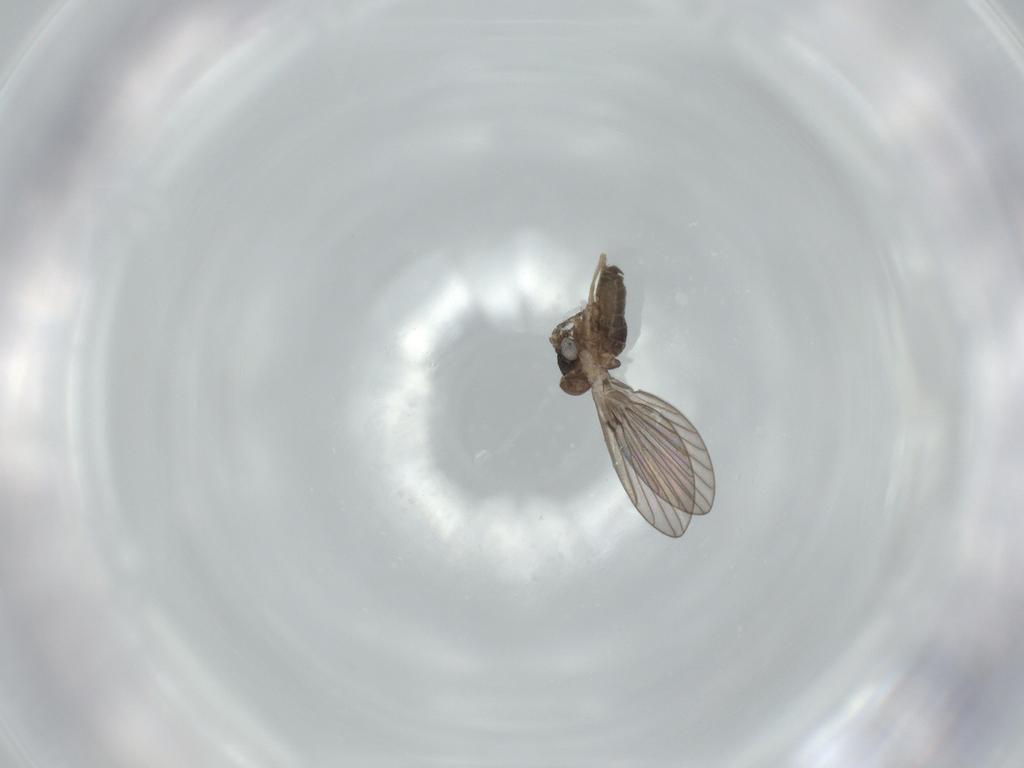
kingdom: Animalia
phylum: Arthropoda
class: Insecta
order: Diptera
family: Psychodidae
